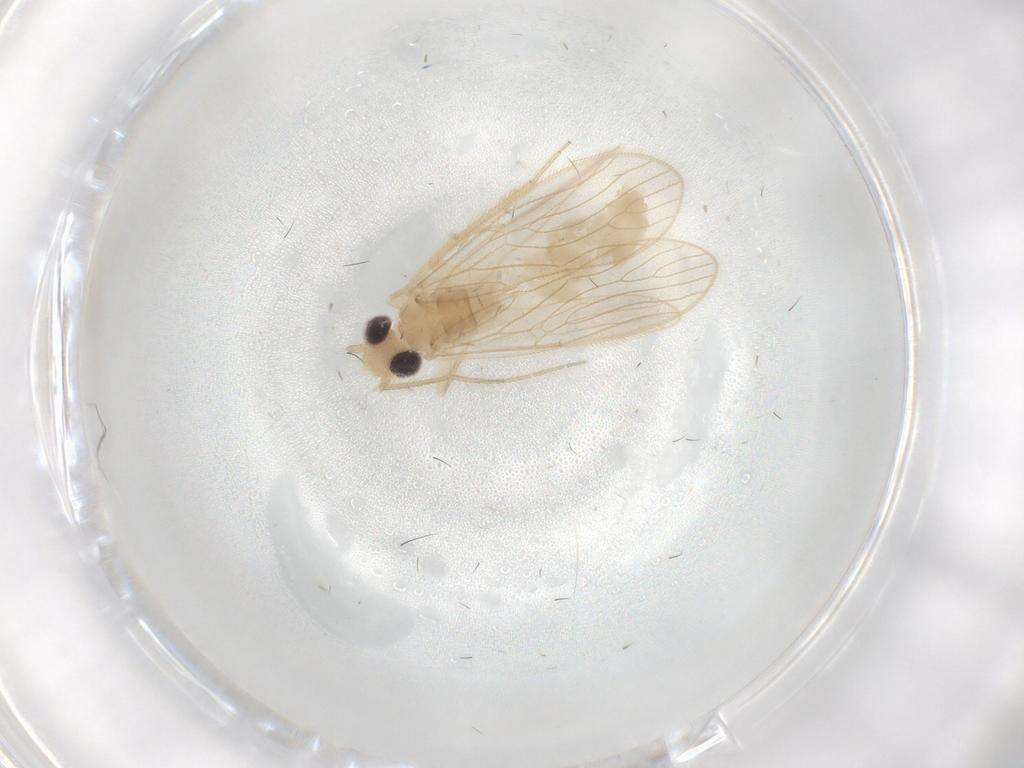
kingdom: Animalia
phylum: Arthropoda
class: Insecta
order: Psocodea
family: Cladiopsocidae
